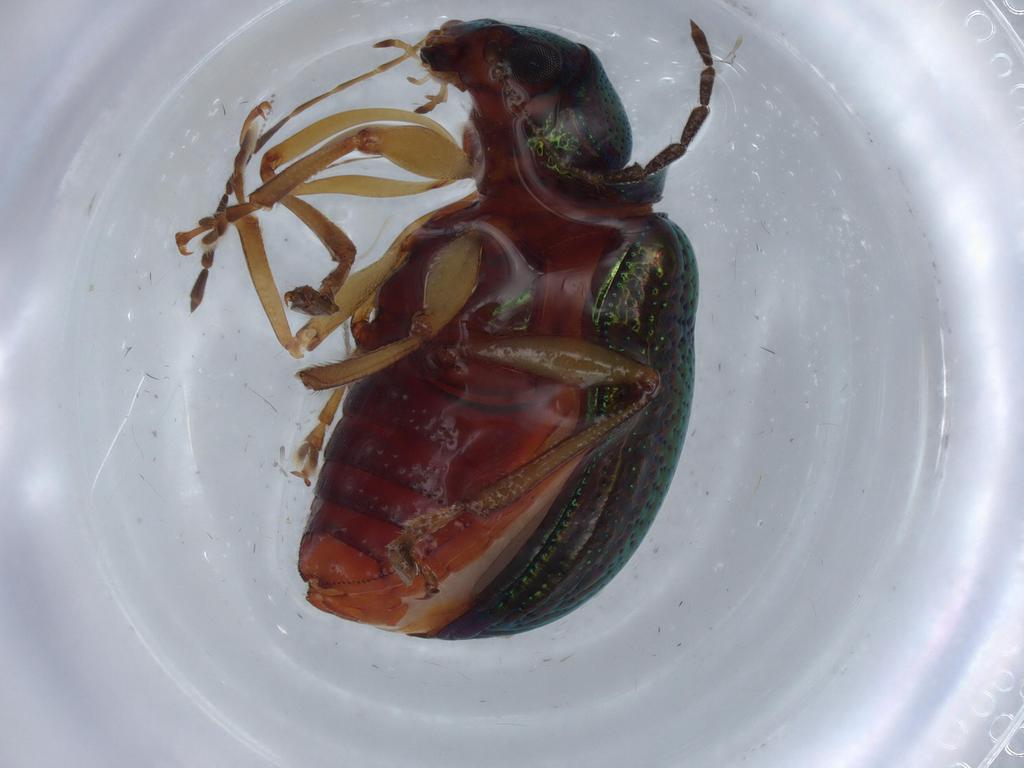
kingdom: Animalia
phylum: Arthropoda
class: Insecta
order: Coleoptera
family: Chrysomelidae
